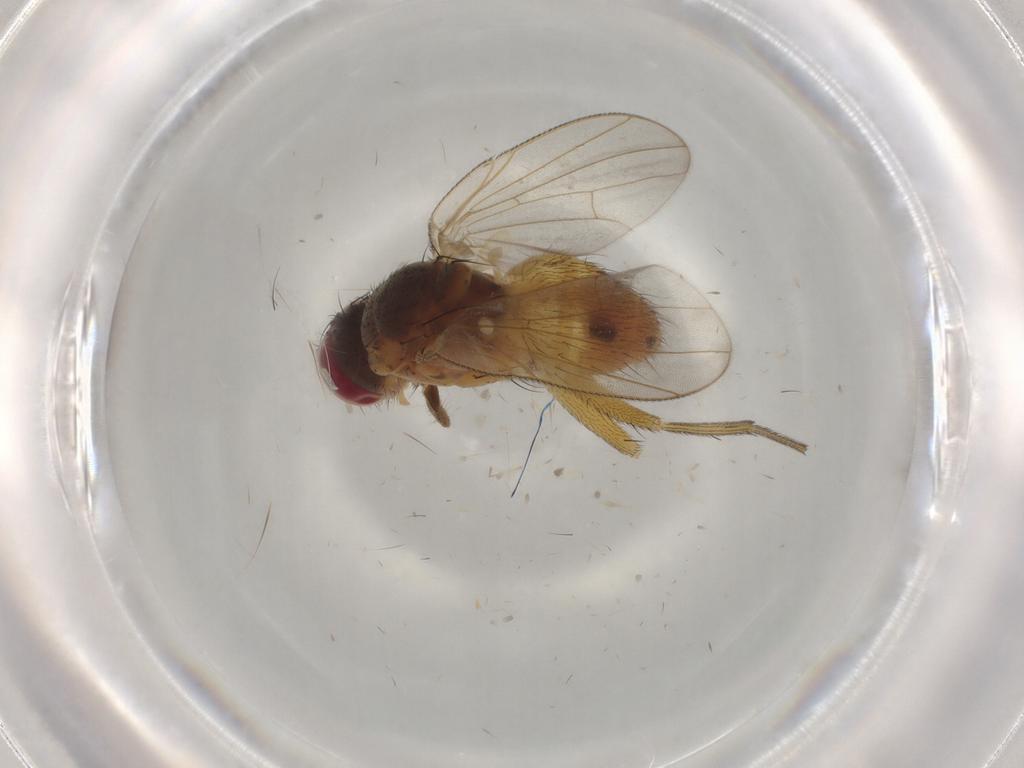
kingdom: Animalia
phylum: Arthropoda
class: Insecta
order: Diptera
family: Muscidae
